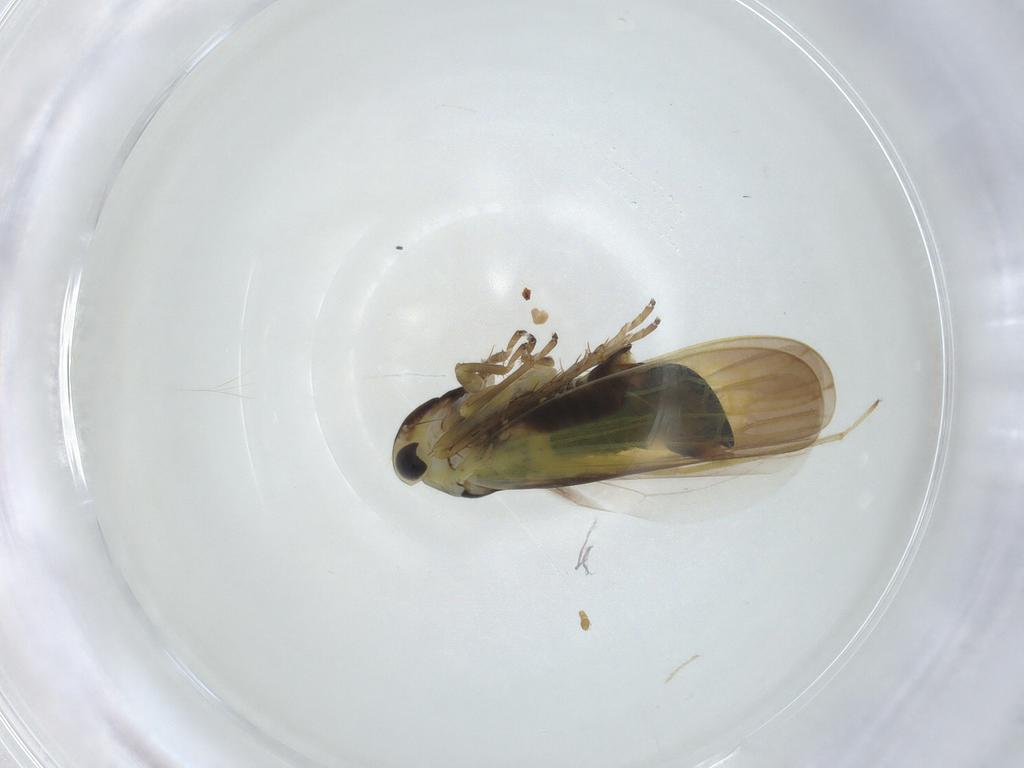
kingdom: Animalia
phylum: Arthropoda
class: Insecta
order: Hemiptera
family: Cicadellidae
